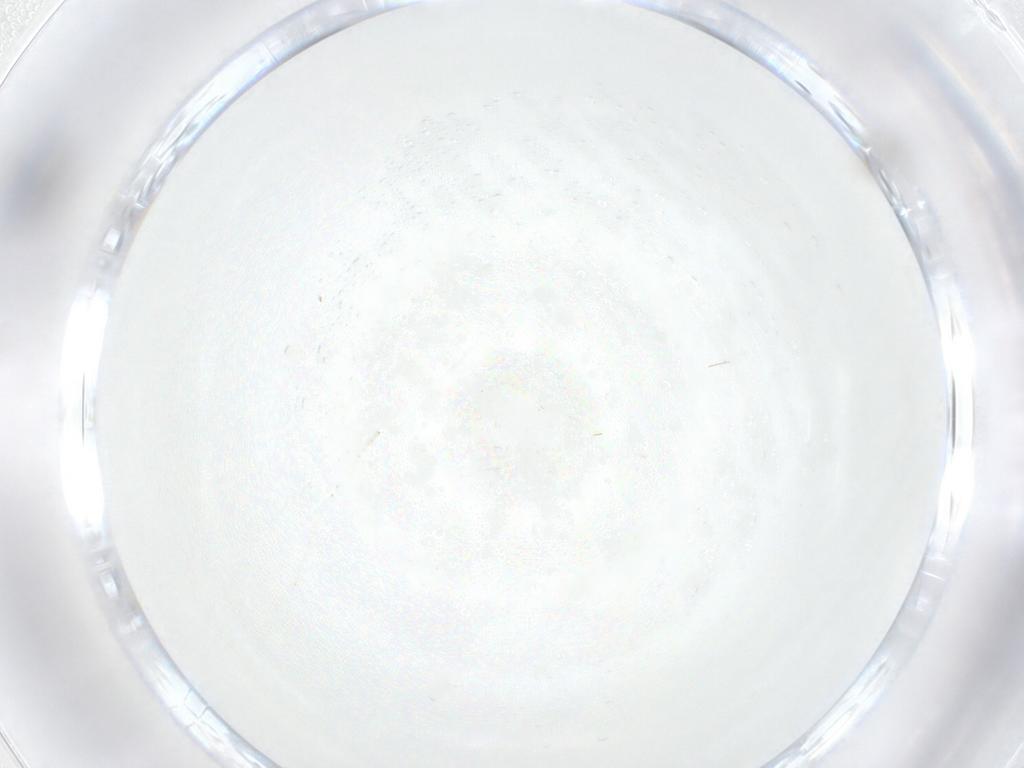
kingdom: Animalia
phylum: Arthropoda
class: Insecta
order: Diptera
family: Cecidomyiidae
